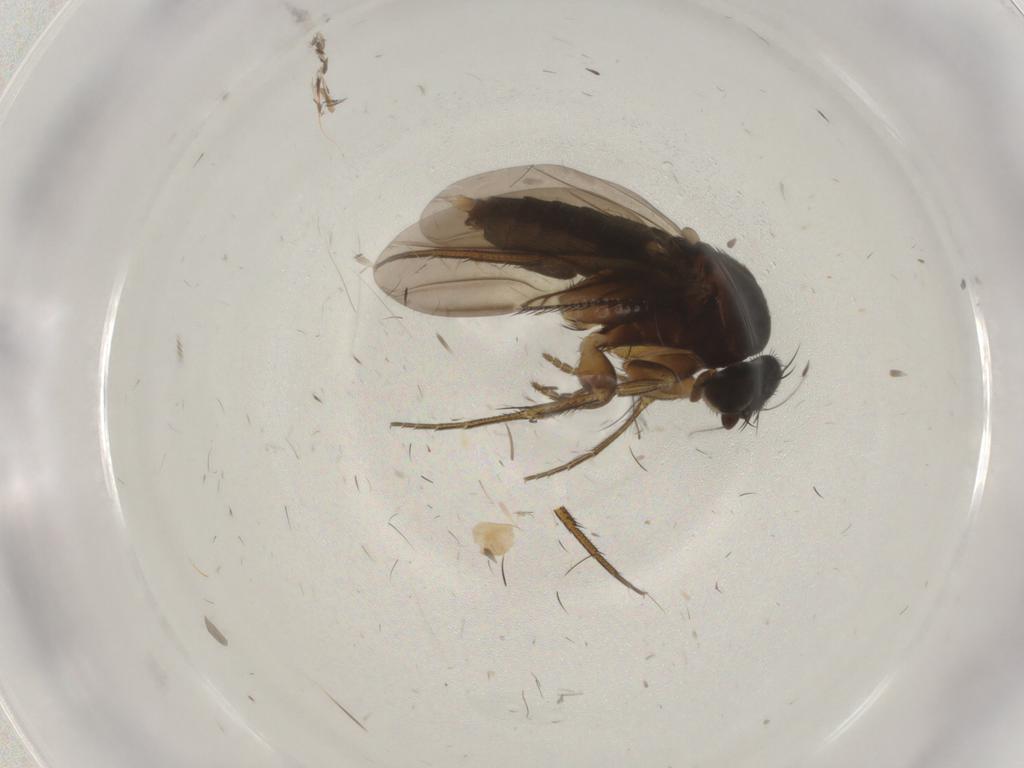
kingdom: Animalia
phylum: Arthropoda
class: Insecta
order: Diptera
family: Phoridae
